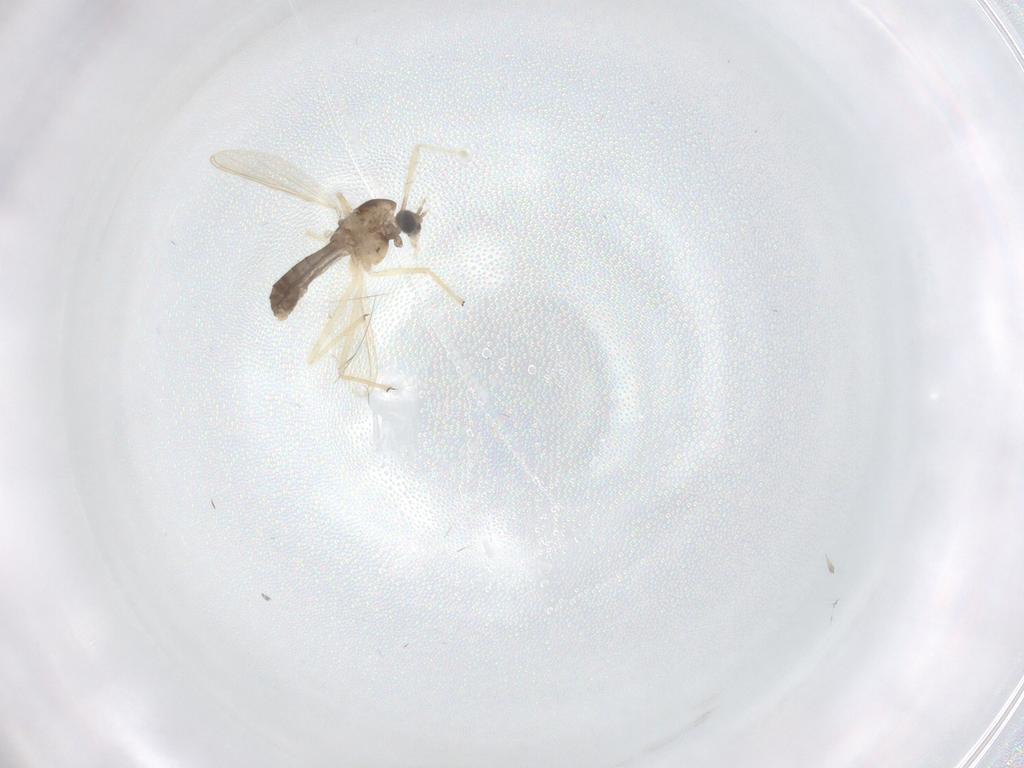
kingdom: Animalia
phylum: Arthropoda
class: Insecta
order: Diptera
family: Chironomidae
